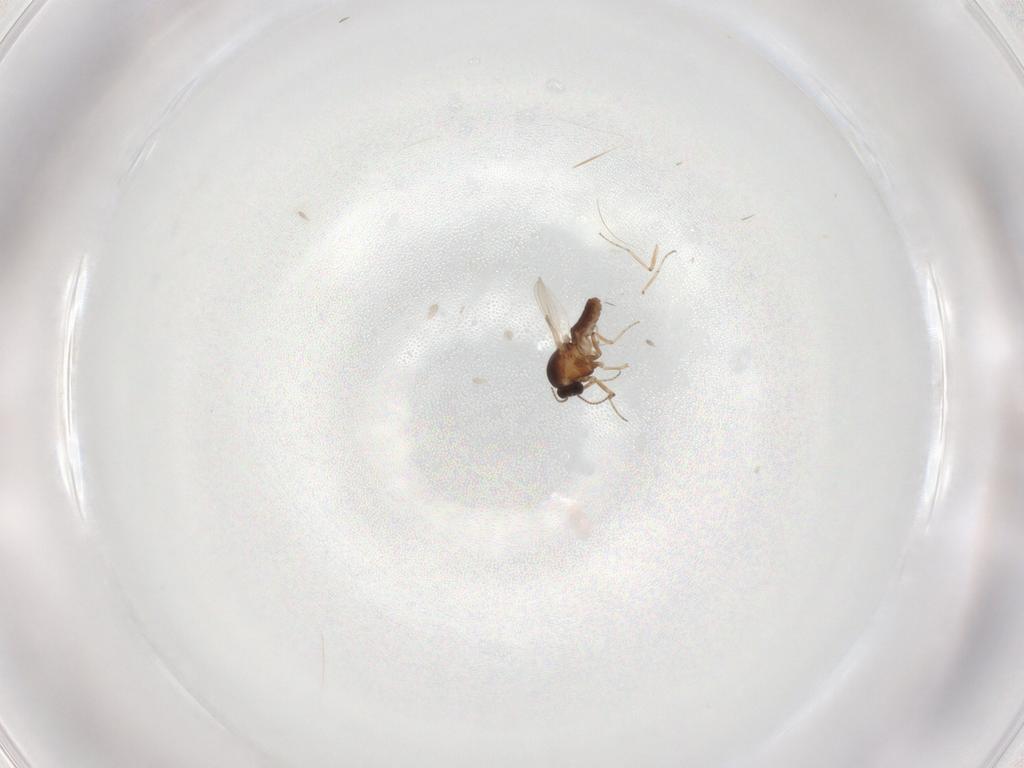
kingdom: Animalia
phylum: Arthropoda
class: Insecta
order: Diptera
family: Ceratopogonidae
